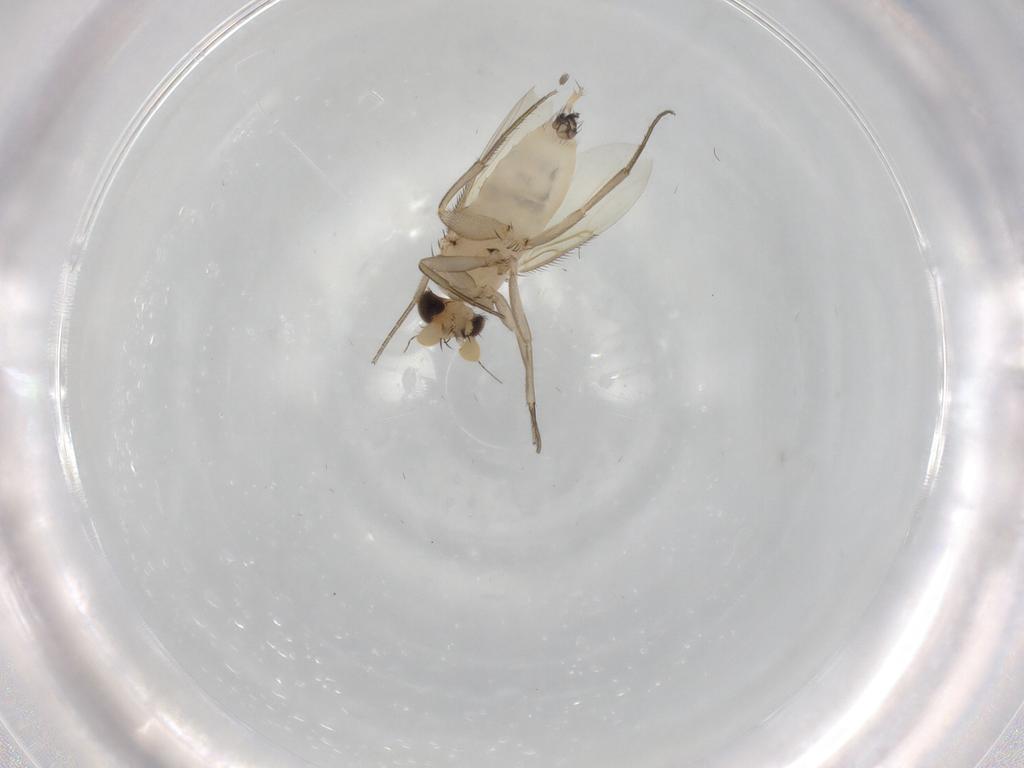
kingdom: Animalia
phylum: Arthropoda
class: Insecta
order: Diptera
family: Phoridae
